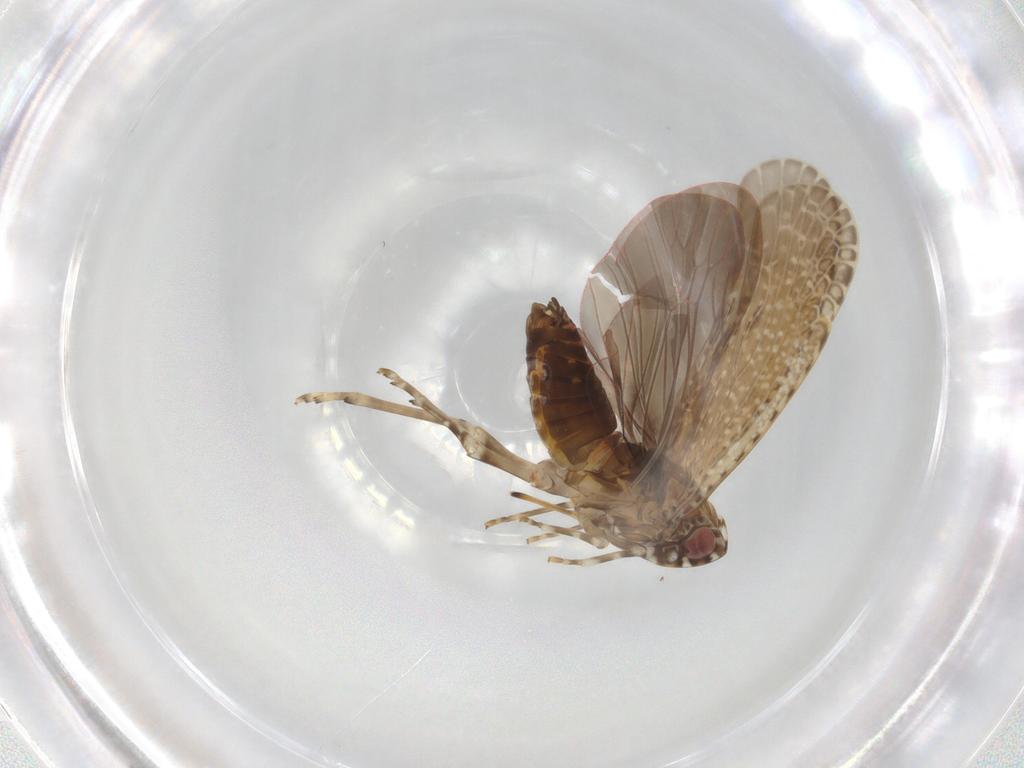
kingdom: Animalia
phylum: Arthropoda
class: Insecta
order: Hemiptera
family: Achilidae
